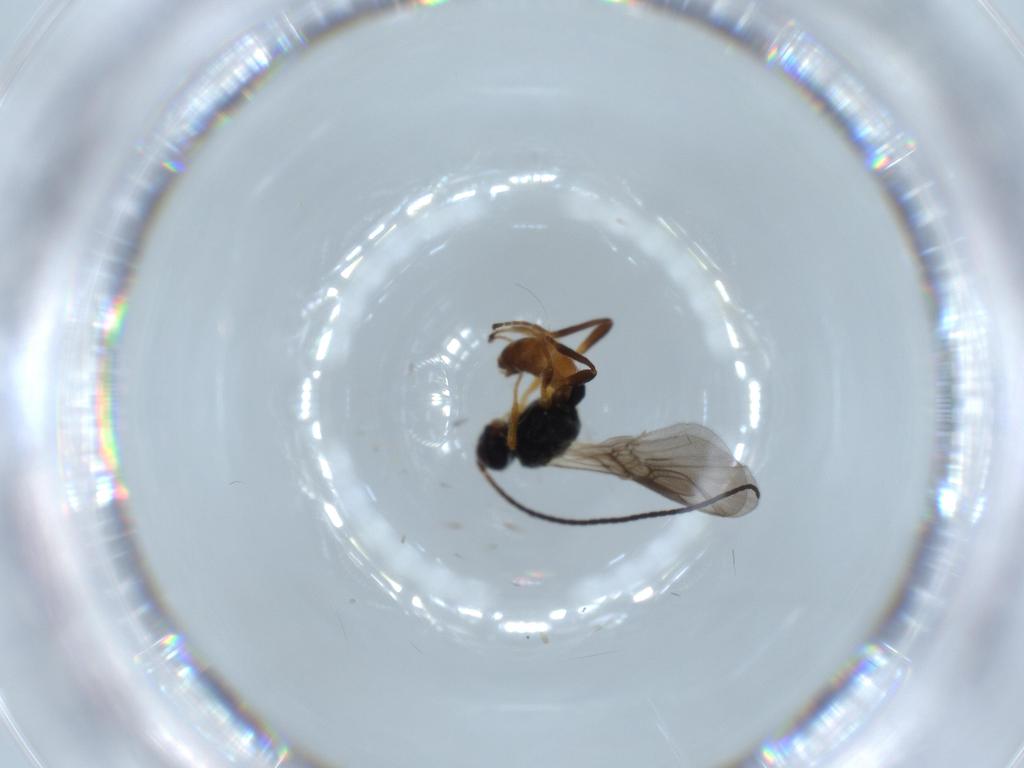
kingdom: Animalia
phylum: Arthropoda
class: Insecta
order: Hymenoptera
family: Braconidae
